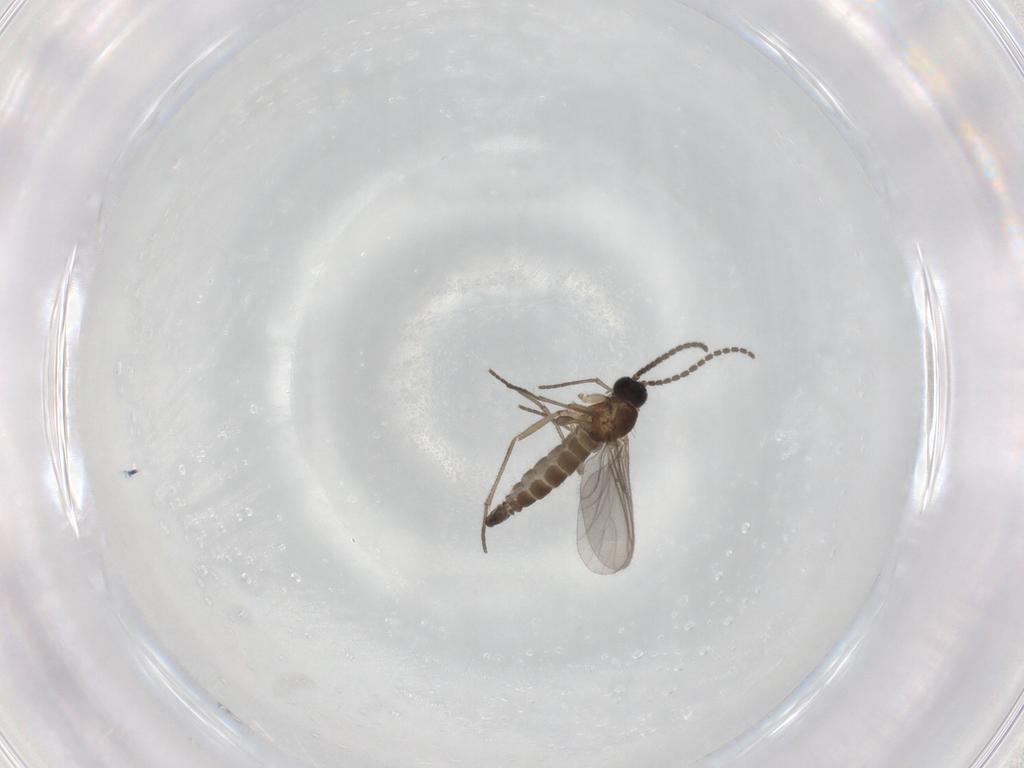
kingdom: Animalia
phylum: Arthropoda
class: Insecta
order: Diptera
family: Sciaridae
